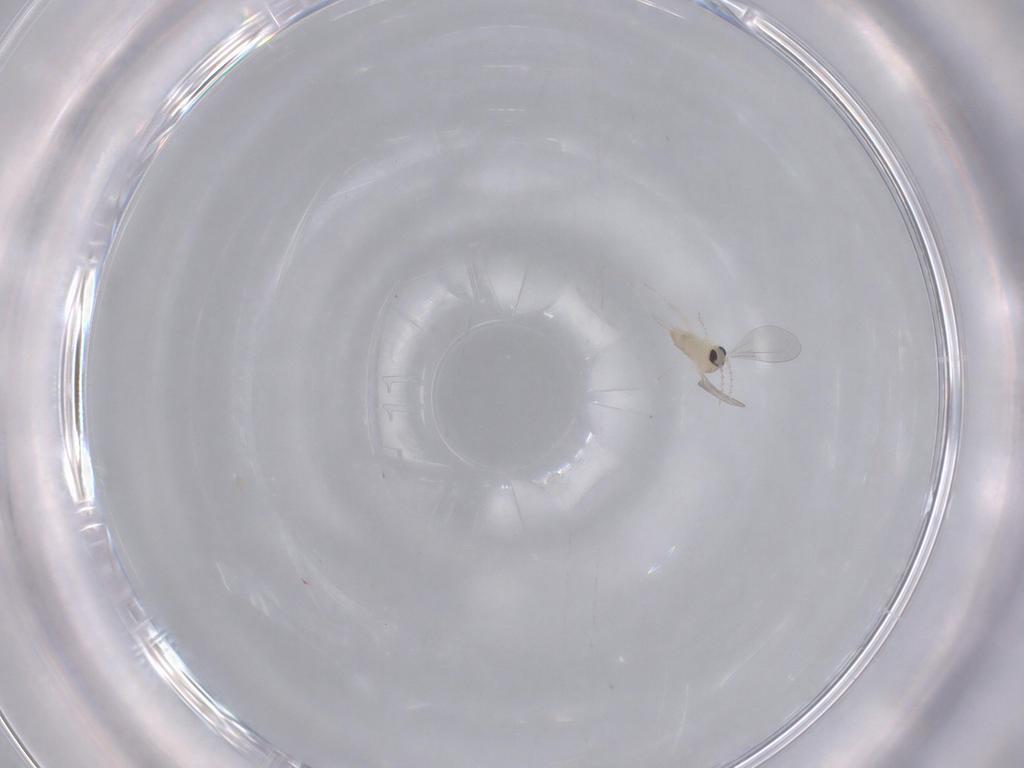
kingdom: Animalia
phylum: Arthropoda
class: Insecta
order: Diptera
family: Cecidomyiidae
